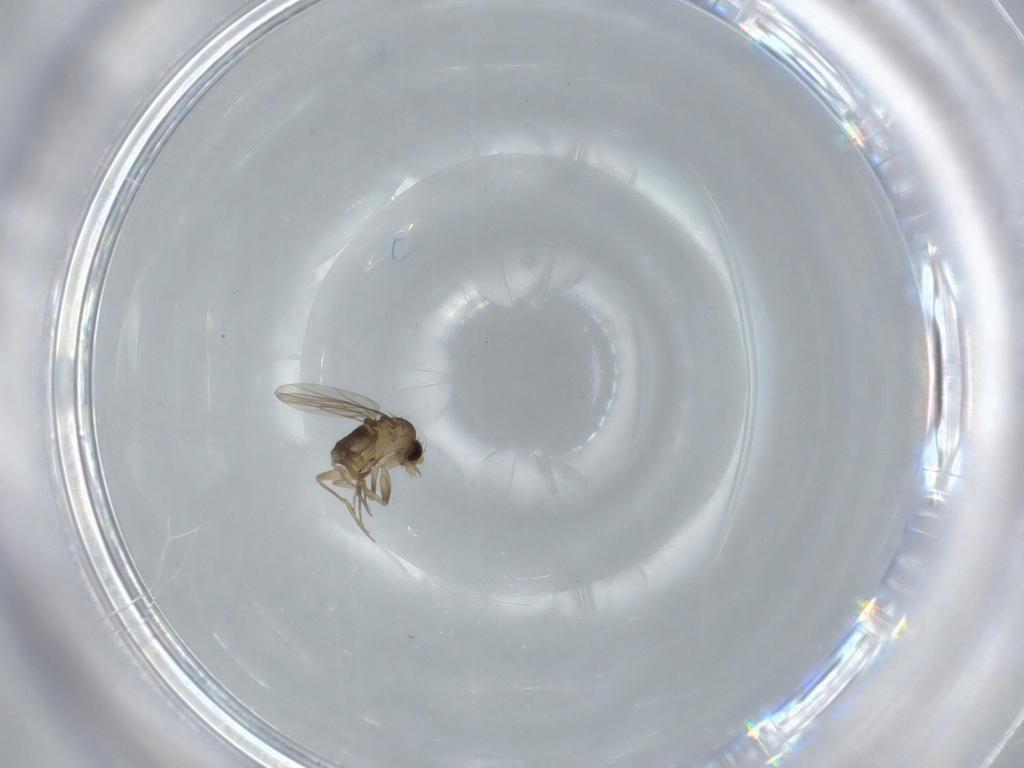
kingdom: Animalia
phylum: Arthropoda
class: Insecta
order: Diptera
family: Phoridae
